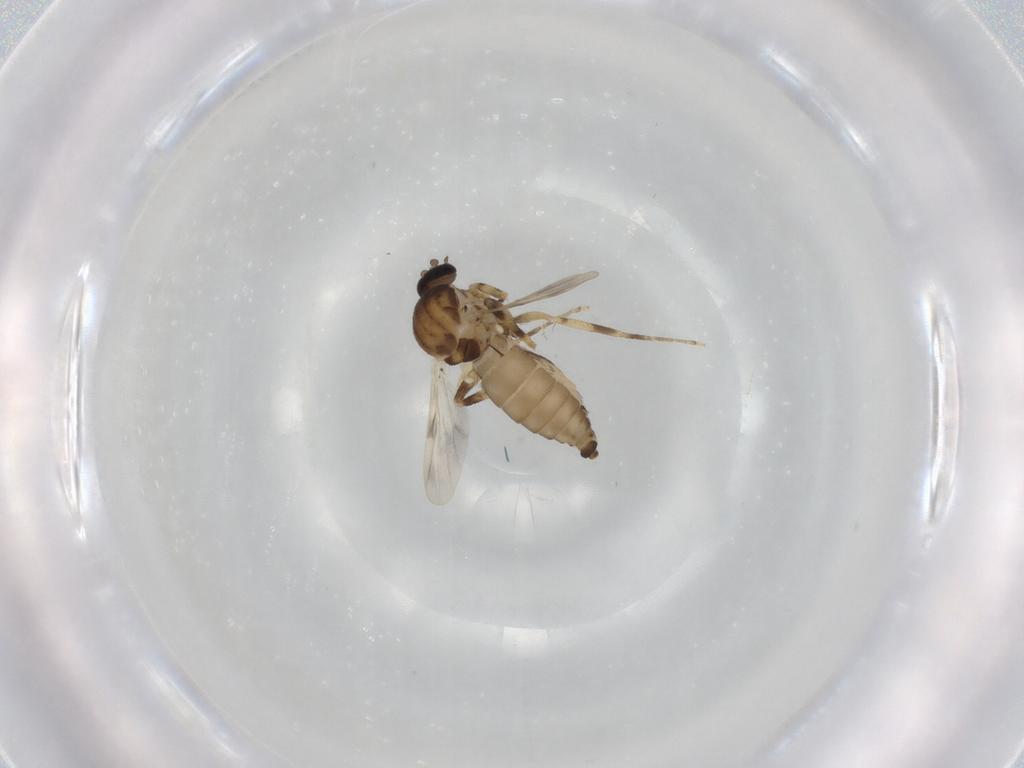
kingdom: Animalia
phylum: Arthropoda
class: Insecta
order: Diptera
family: Ceratopogonidae
